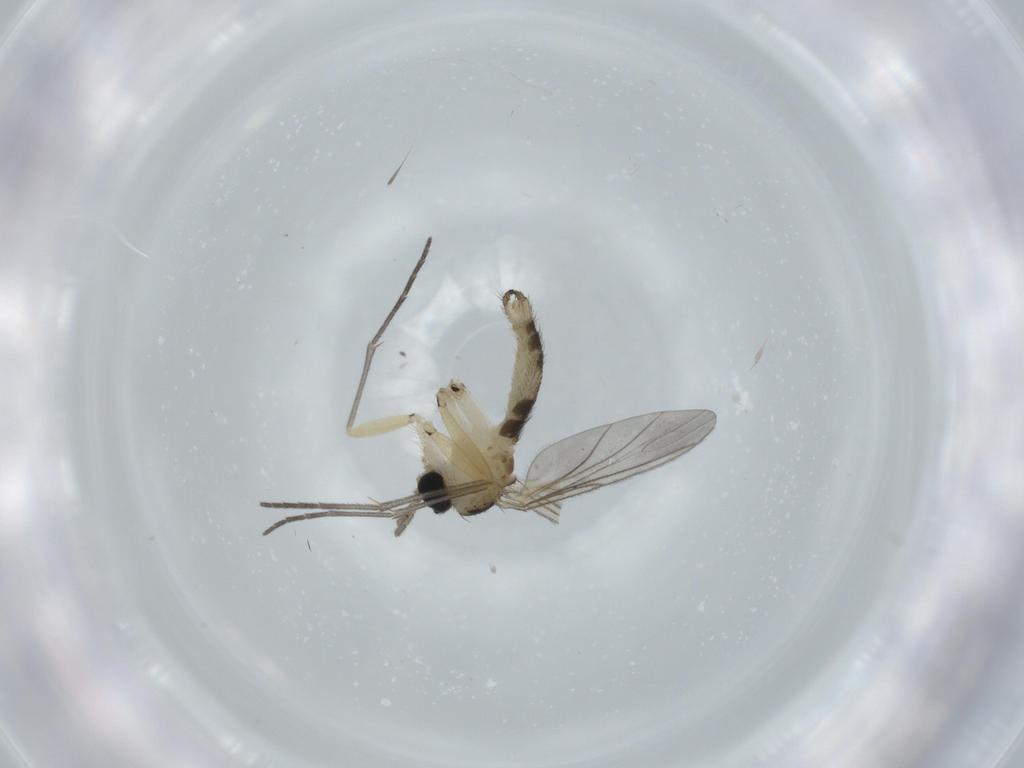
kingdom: Animalia
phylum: Arthropoda
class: Insecta
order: Diptera
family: Sciaridae
